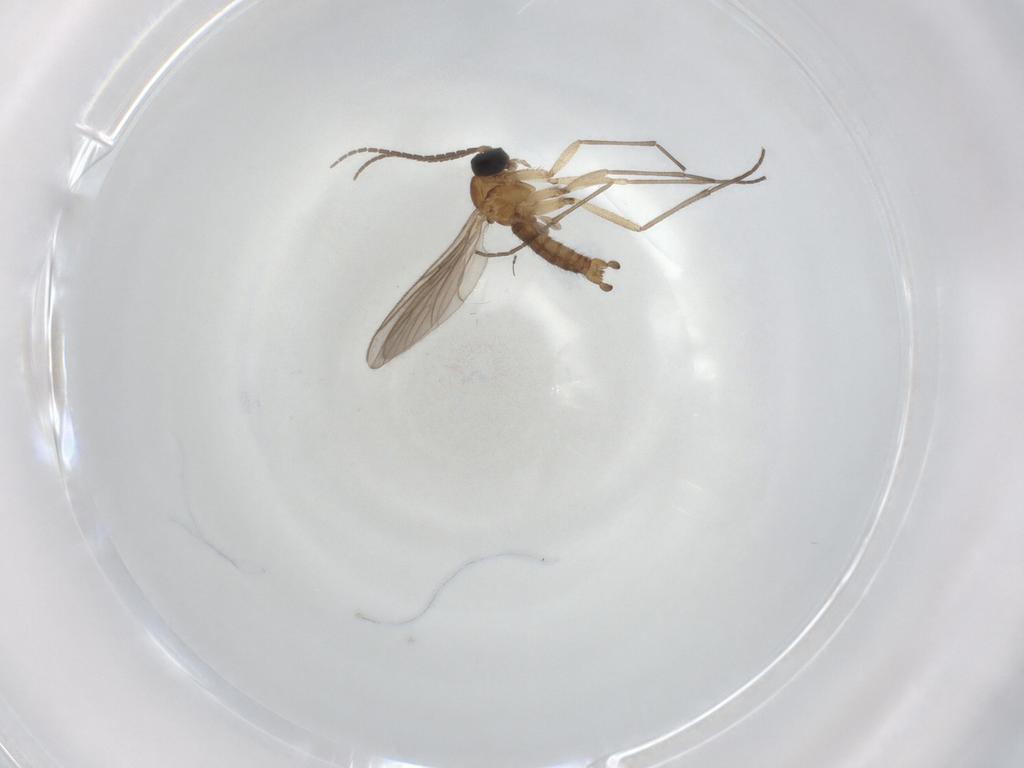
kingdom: Animalia
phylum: Arthropoda
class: Insecta
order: Diptera
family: Sciaridae
